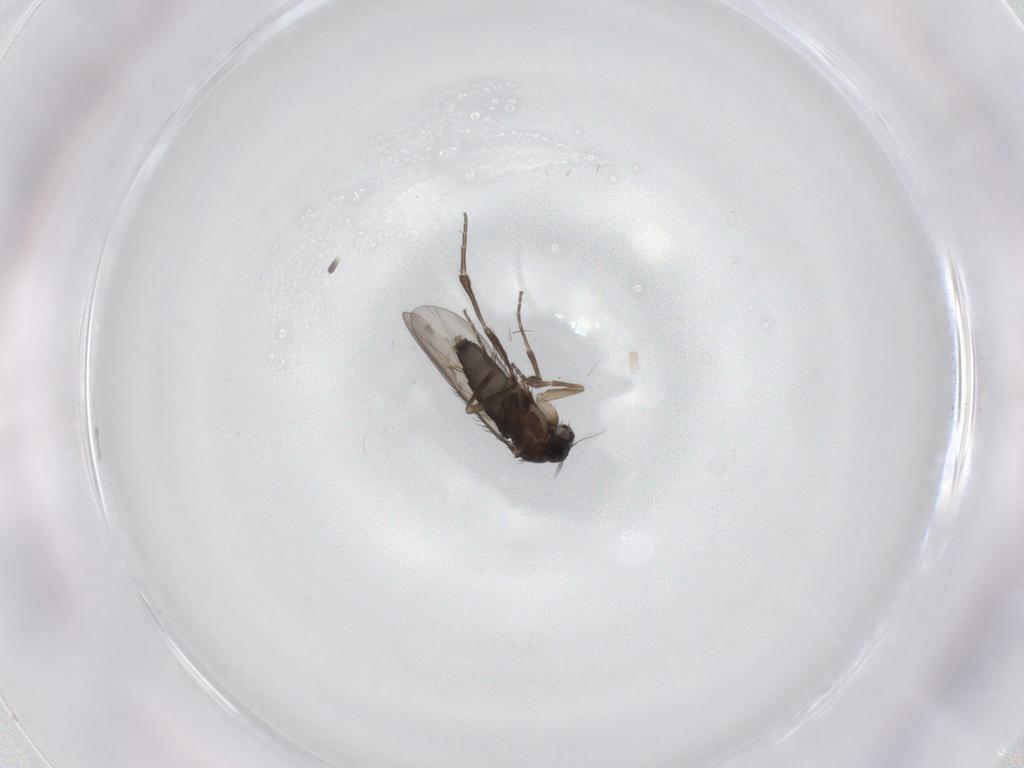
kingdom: Animalia
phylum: Arthropoda
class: Insecta
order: Diptera
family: Phoridae
